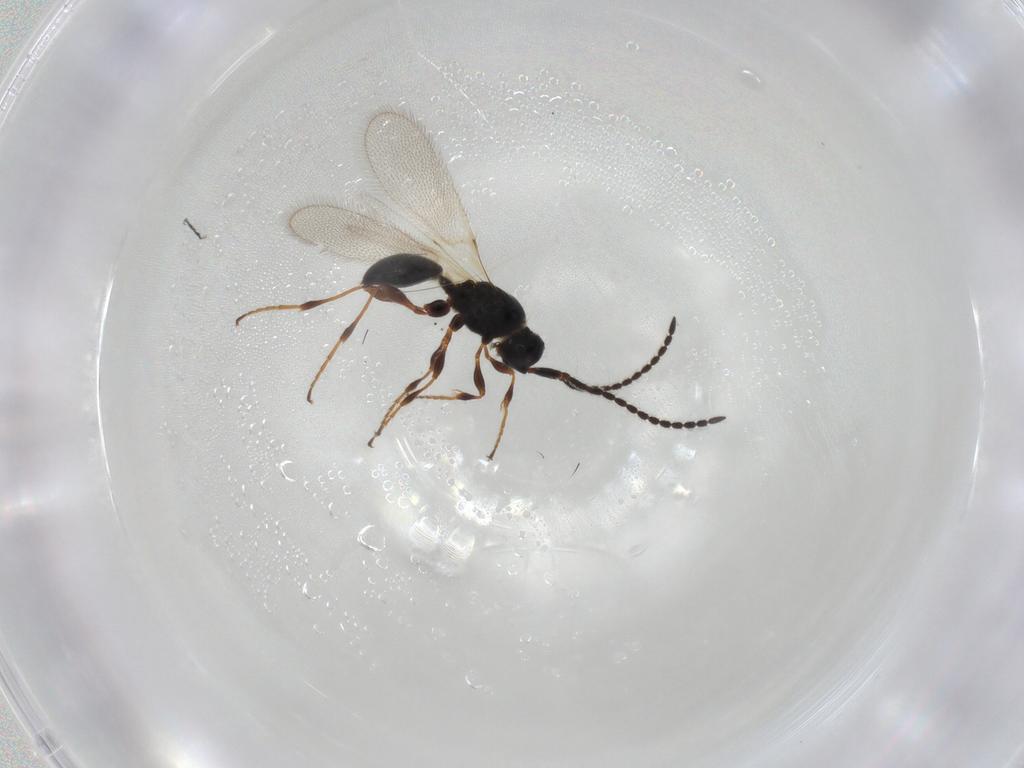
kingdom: Animalia
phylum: Arthropoda
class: Insecta
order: Hymenoptera
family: Diapriidae
